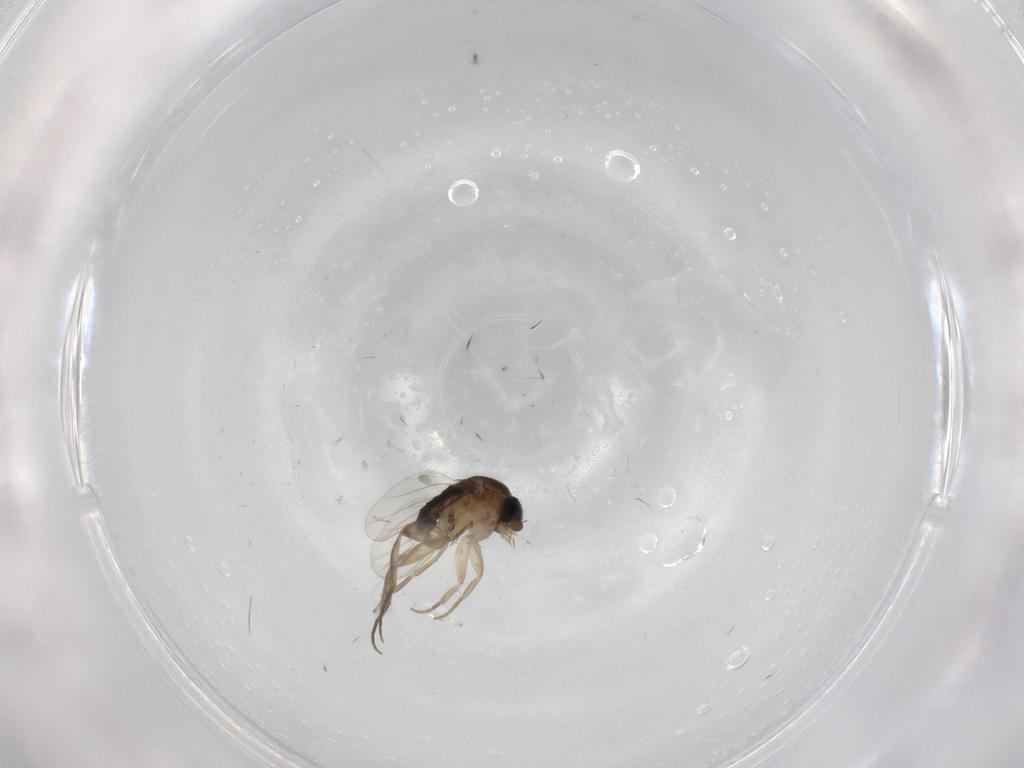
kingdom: Animalia
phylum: Arthropoda
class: Insecta
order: Diptera
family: Phoridae
